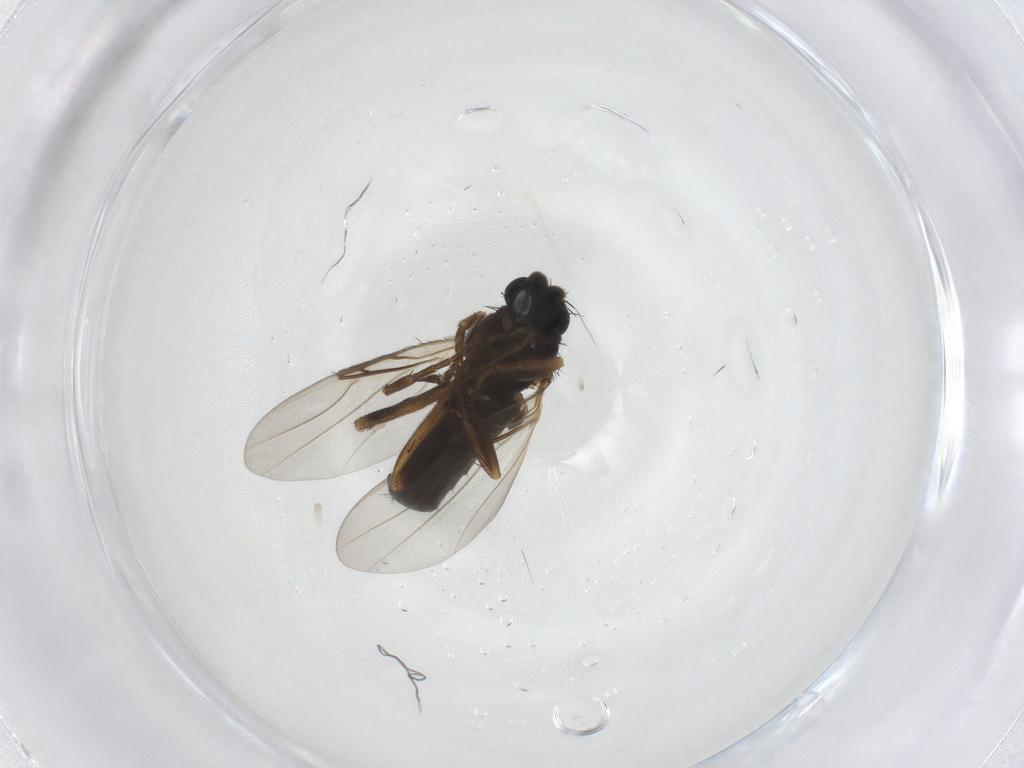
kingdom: Animalia
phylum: Arthropoda
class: Insecta
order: Diptera
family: Phoridae
